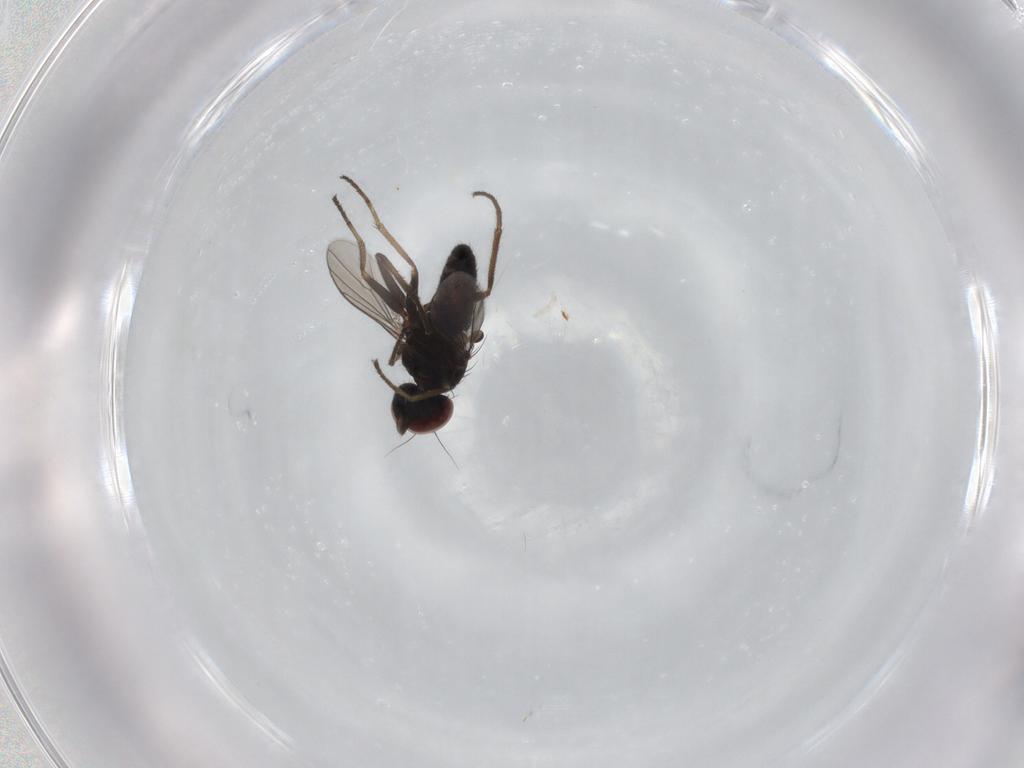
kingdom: Animalia
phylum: Arthropoda
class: Insecta
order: Diptera
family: Dolichopodidae
